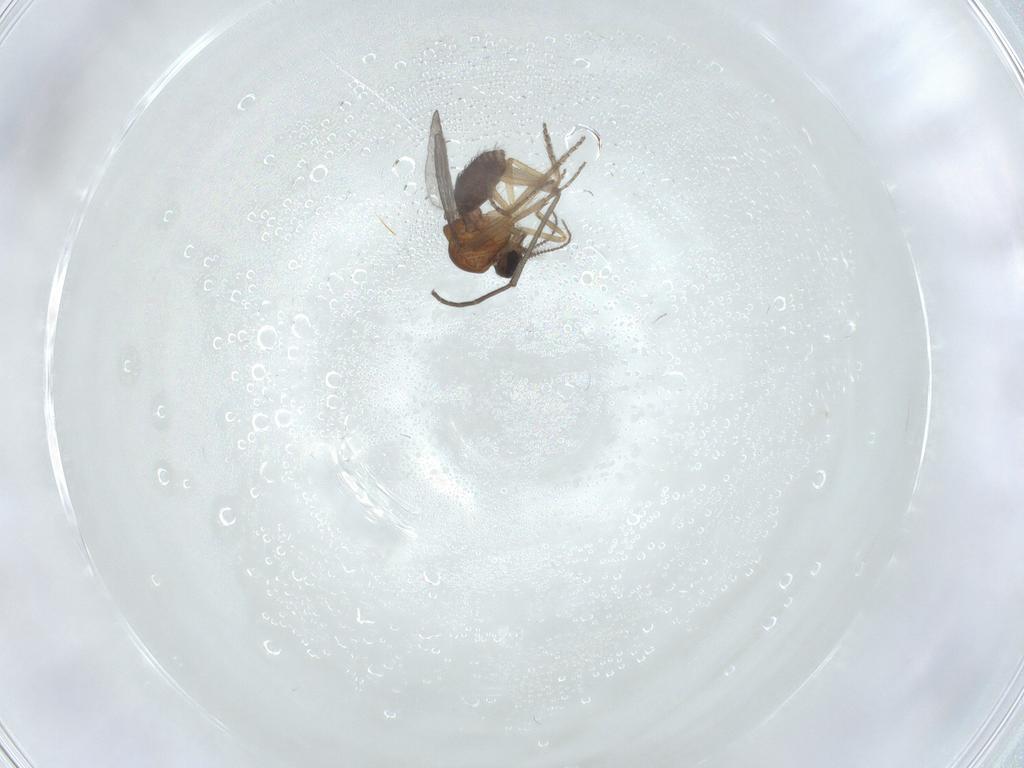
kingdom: Animalia
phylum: Arthropoda
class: Insecta
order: Diptera
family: Ceratopogonidae
